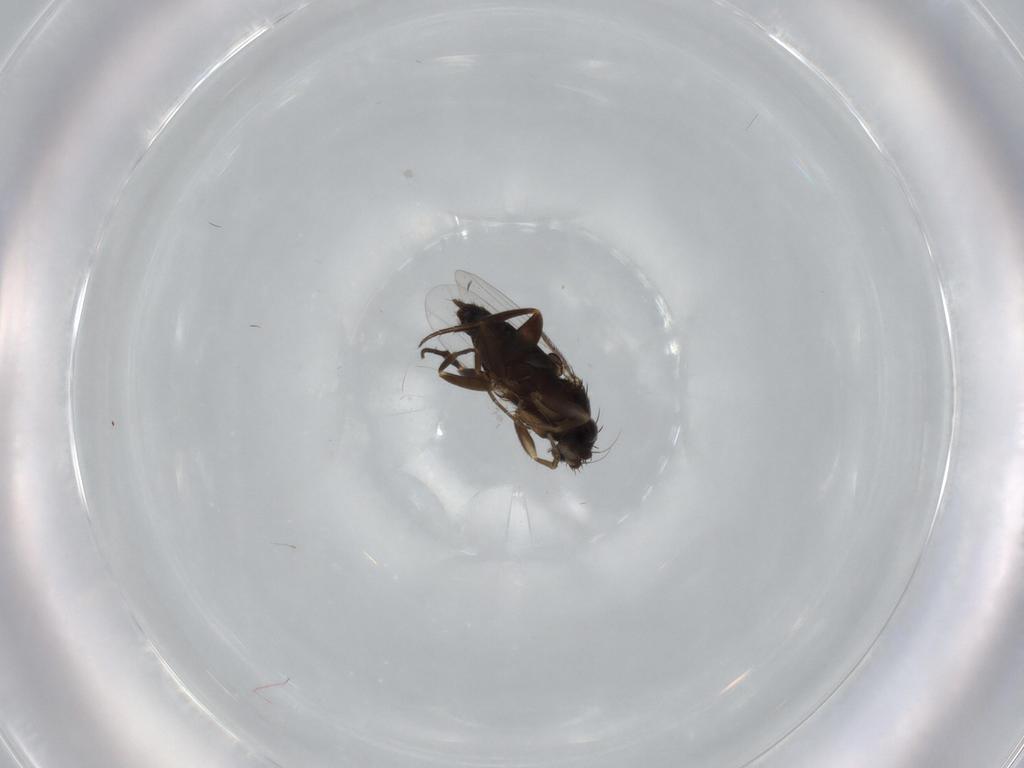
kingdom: Animalia
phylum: Arthropoda
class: Insecta
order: Diptera
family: Phoridae
